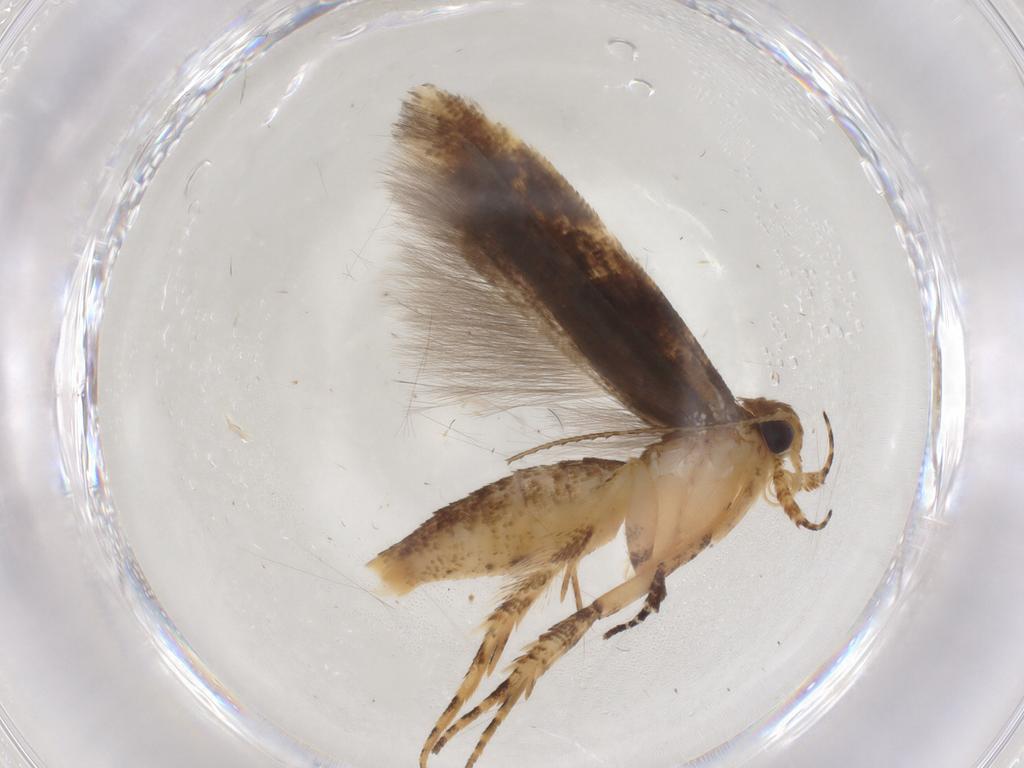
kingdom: Animalia
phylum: Arthropoda
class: Insecta
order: Lepidoptera
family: Gelechiidae
